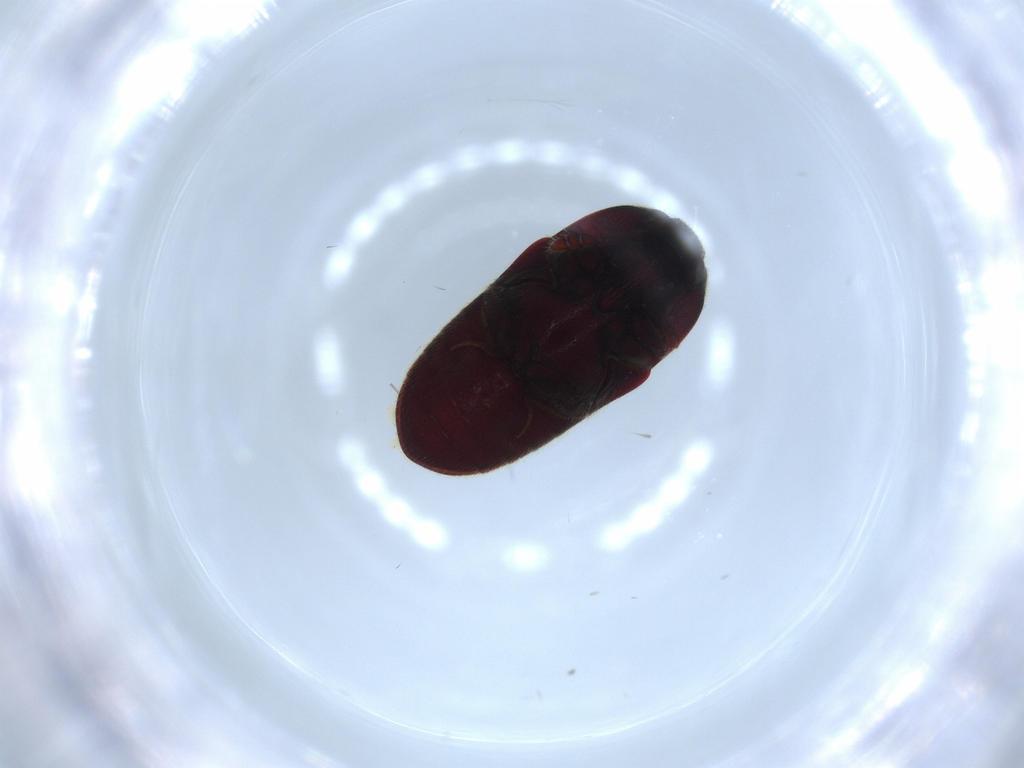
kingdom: Animalia
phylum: Arthropoda
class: Insecta
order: Coleoptera
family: Throscidae
